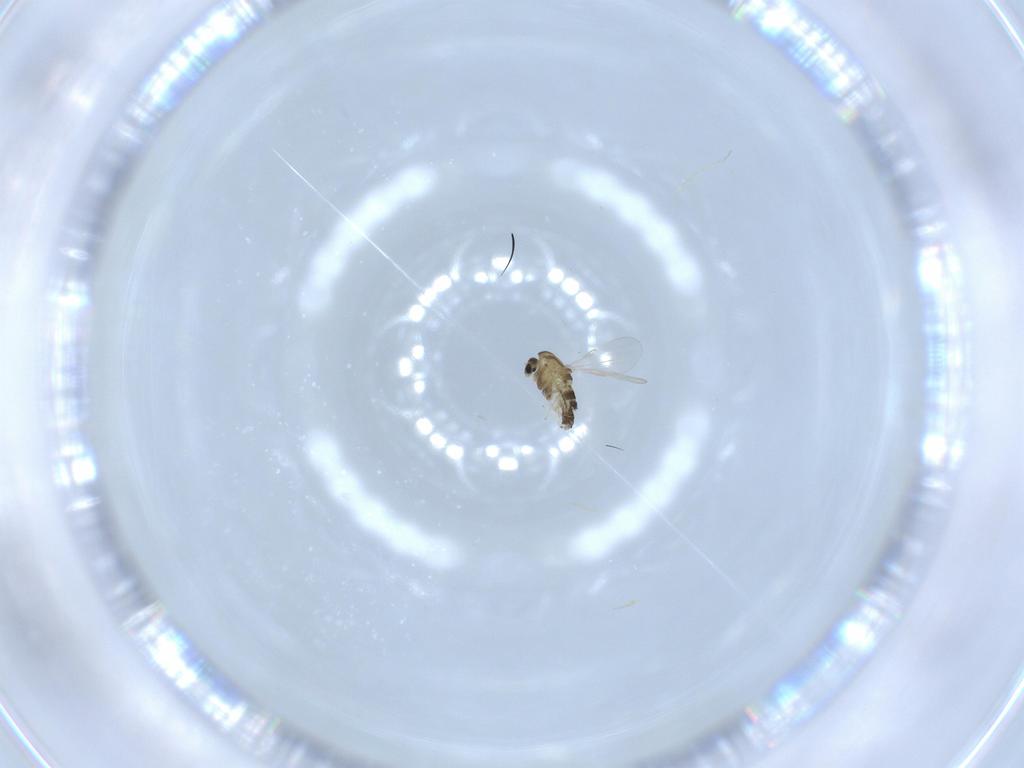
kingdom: Animalia
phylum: Arthropoda
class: Insecta
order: Diptera
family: Chironomidae
